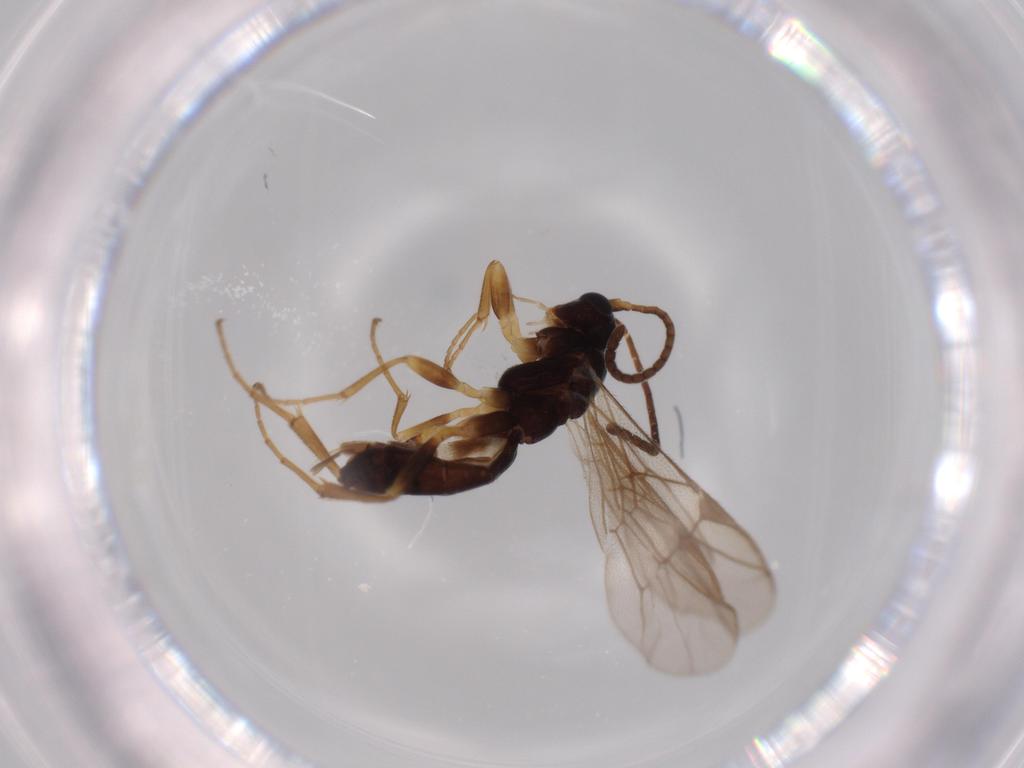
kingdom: Animalia
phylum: Arthropoda
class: Insecta
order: Hymenoptera
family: Ichneumonidae
